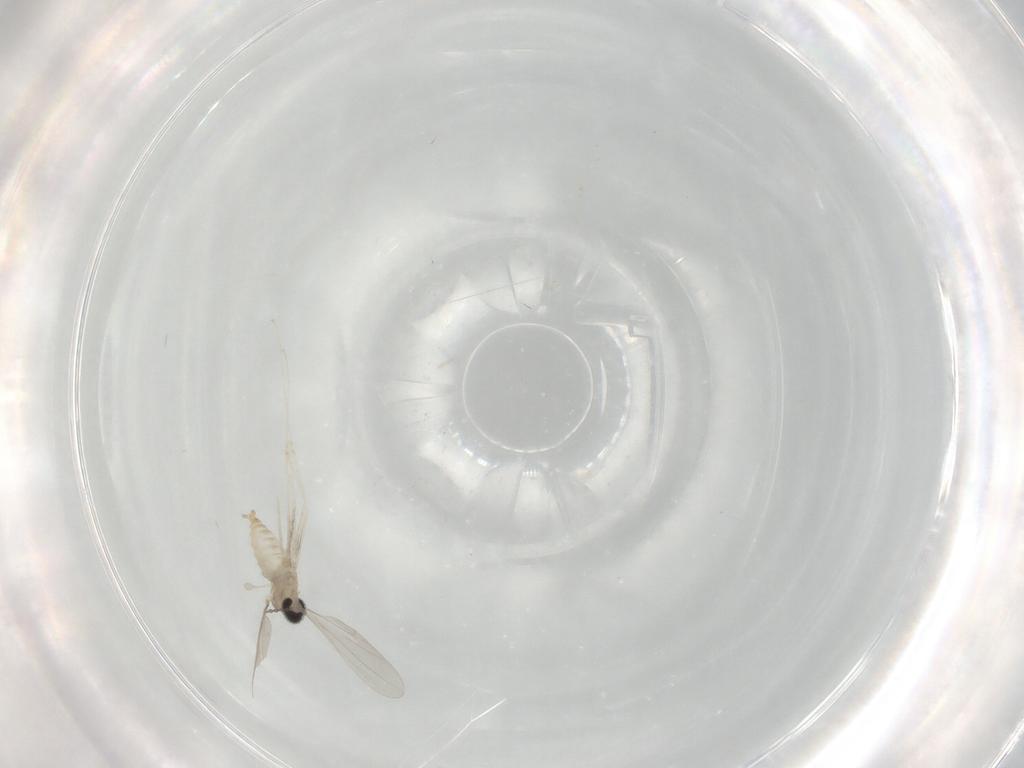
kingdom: Animalia
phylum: Arthropoda
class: Insecta
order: Diptera
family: Cecidomyiidae
